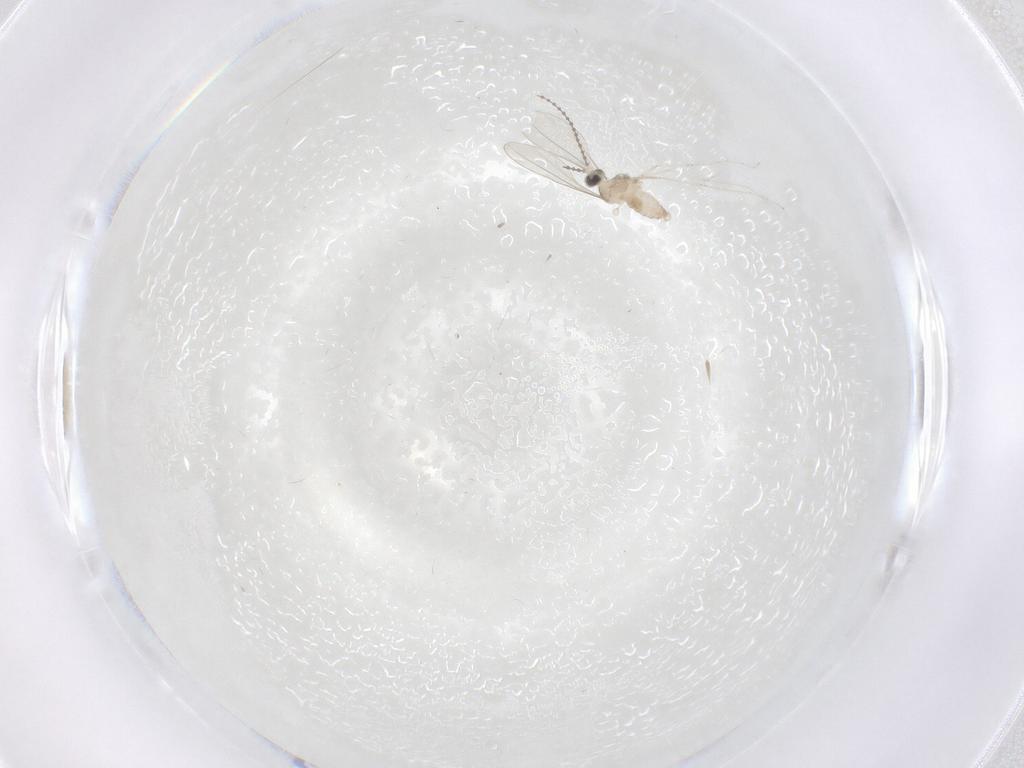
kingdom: Animalia
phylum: Arthropoda
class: Insecta
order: Diptera
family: Cecidomyiidae
